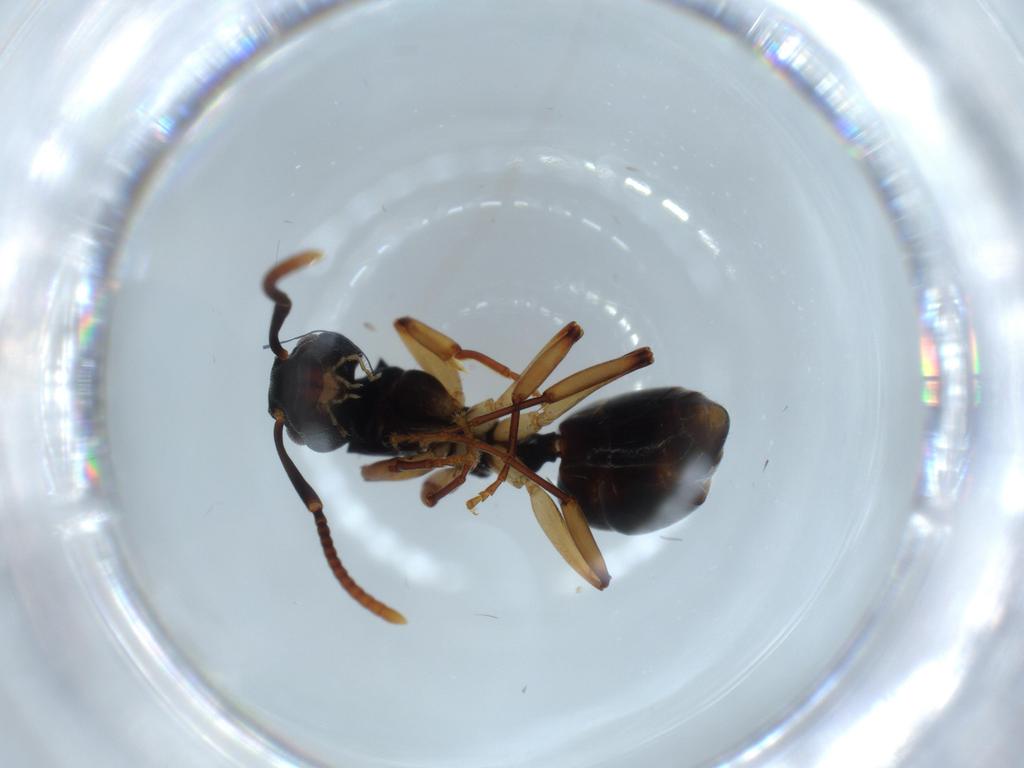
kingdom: Animalia
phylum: Arthropoda
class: Insecta
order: Hymenoptera
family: Formicidae
